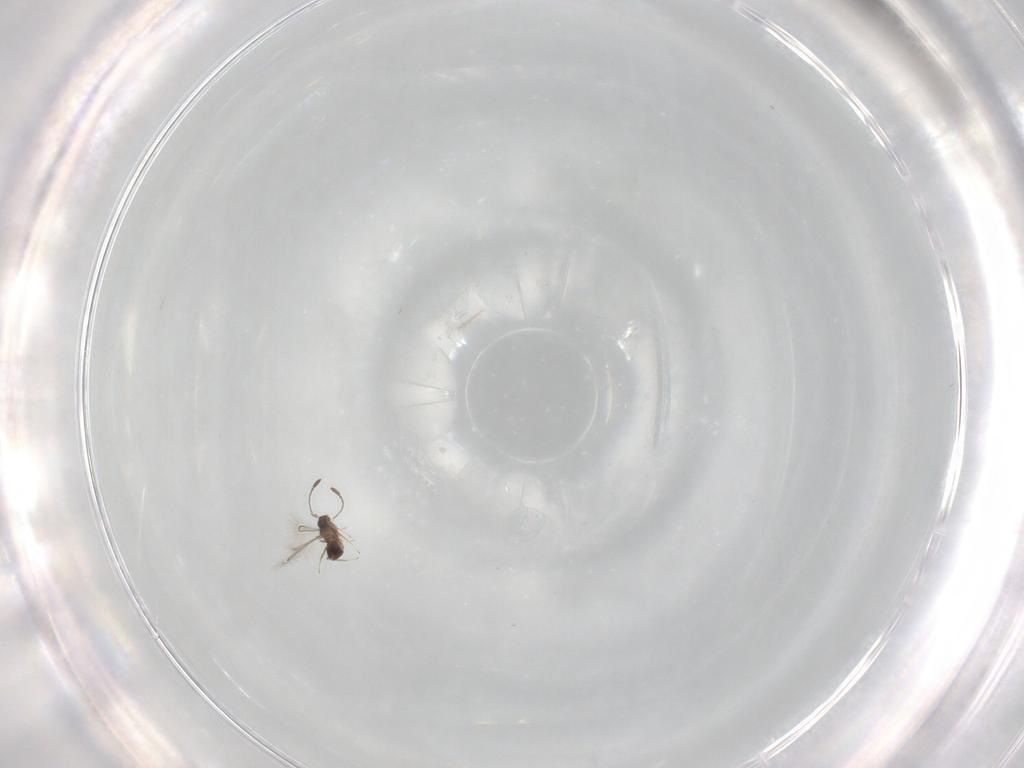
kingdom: Animalia
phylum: Arthropoda
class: Insecta
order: Hymenoptera
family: Mymaridae
